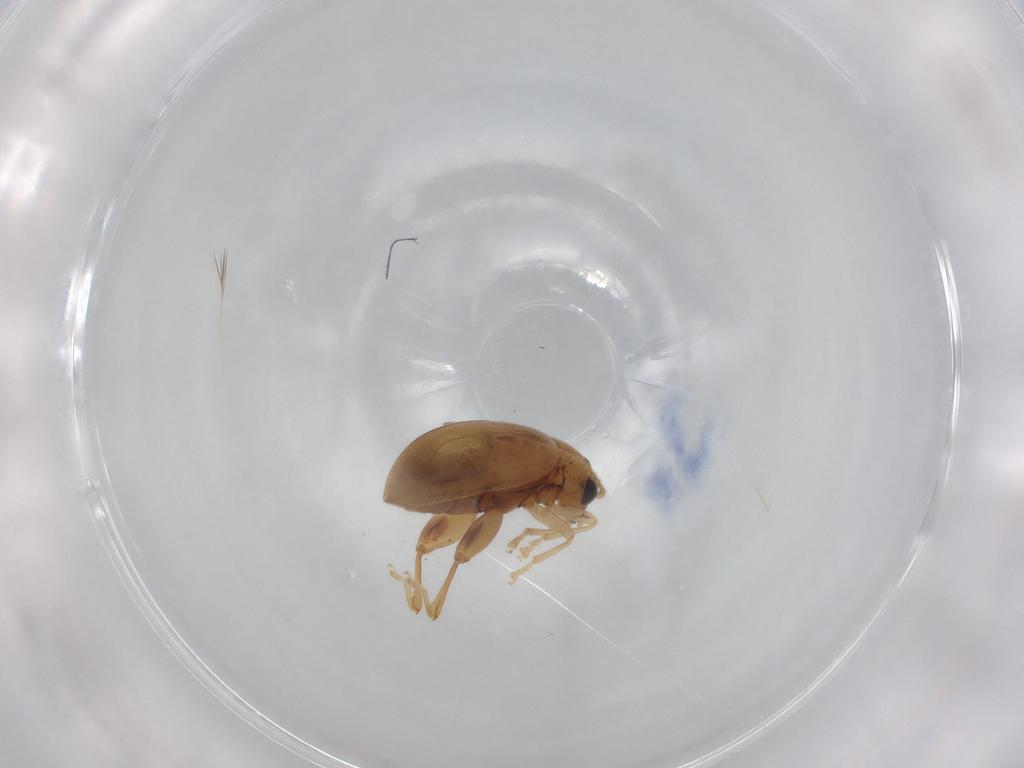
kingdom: Animalia
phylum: Arthropoda
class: Insecta
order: Coleoptera
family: Chrysomelidae
